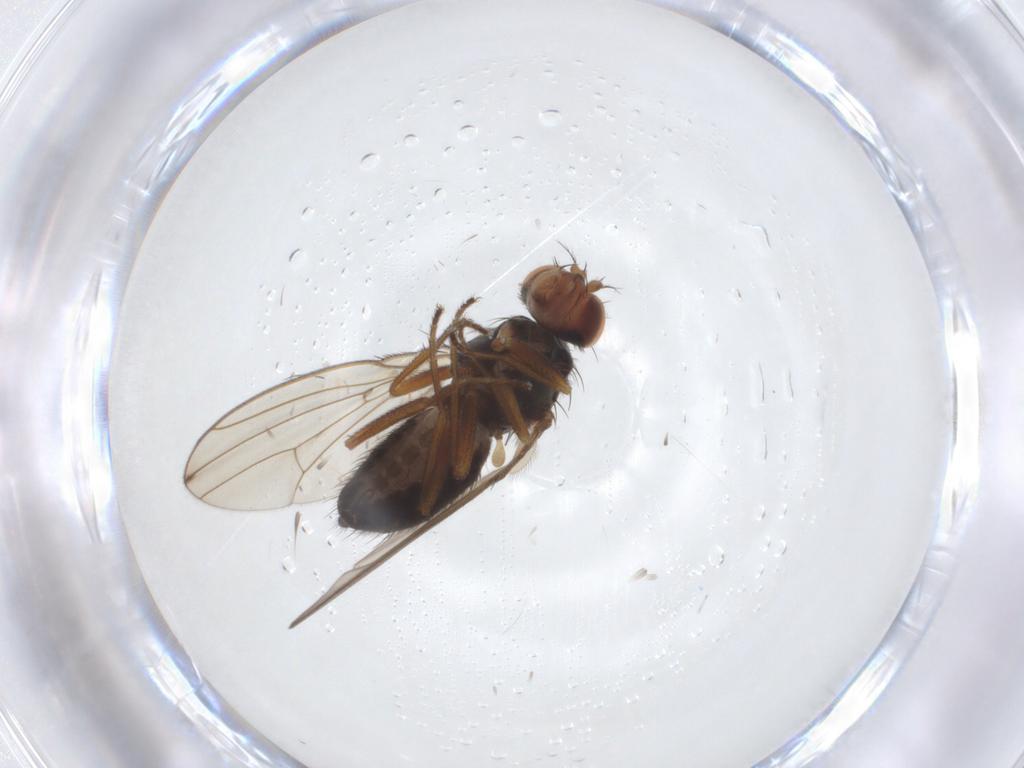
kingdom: Animalia
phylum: Arthropoda
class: Insecta
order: Diptera
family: Drosophilidae
